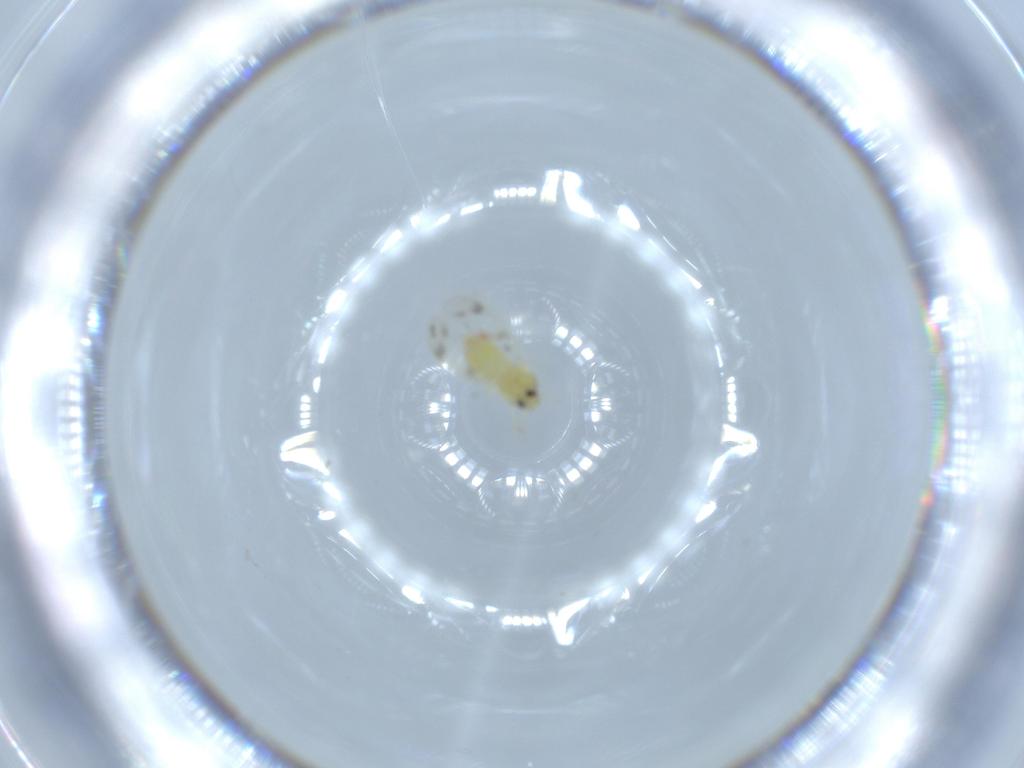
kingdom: Animalia
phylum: Arthropoda
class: Insecta
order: Hemiptera
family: Aleyrodidae
